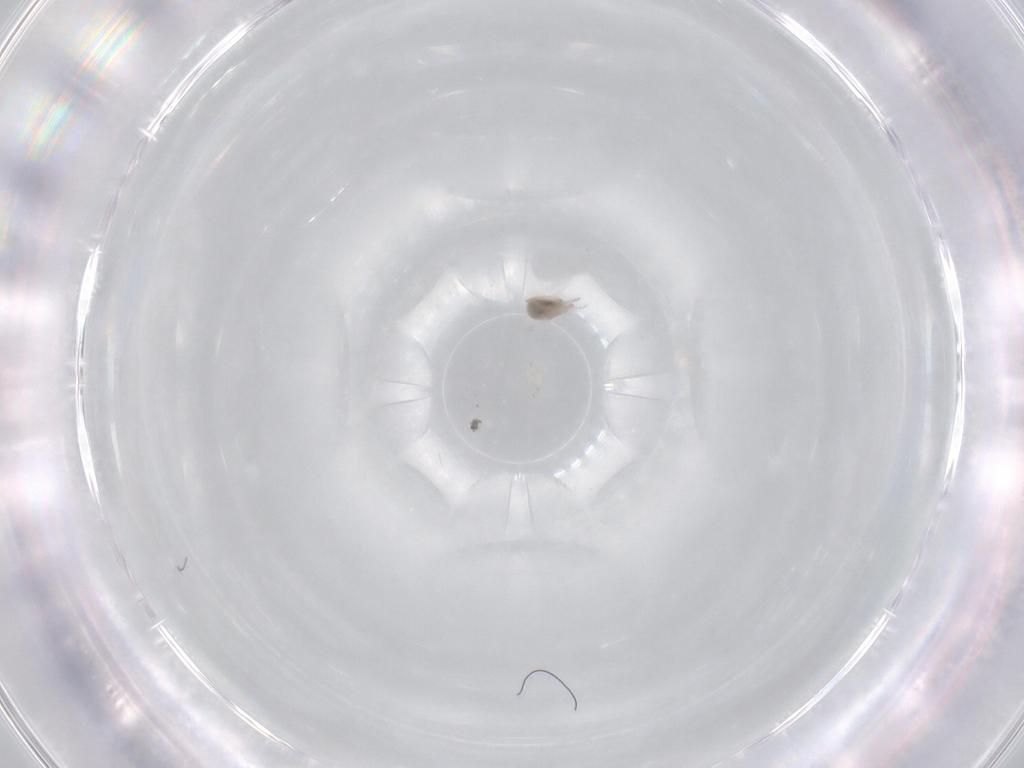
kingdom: Animalia
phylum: Arthropoda
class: Arachnida
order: Trombidiformes
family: Limnesiidae
